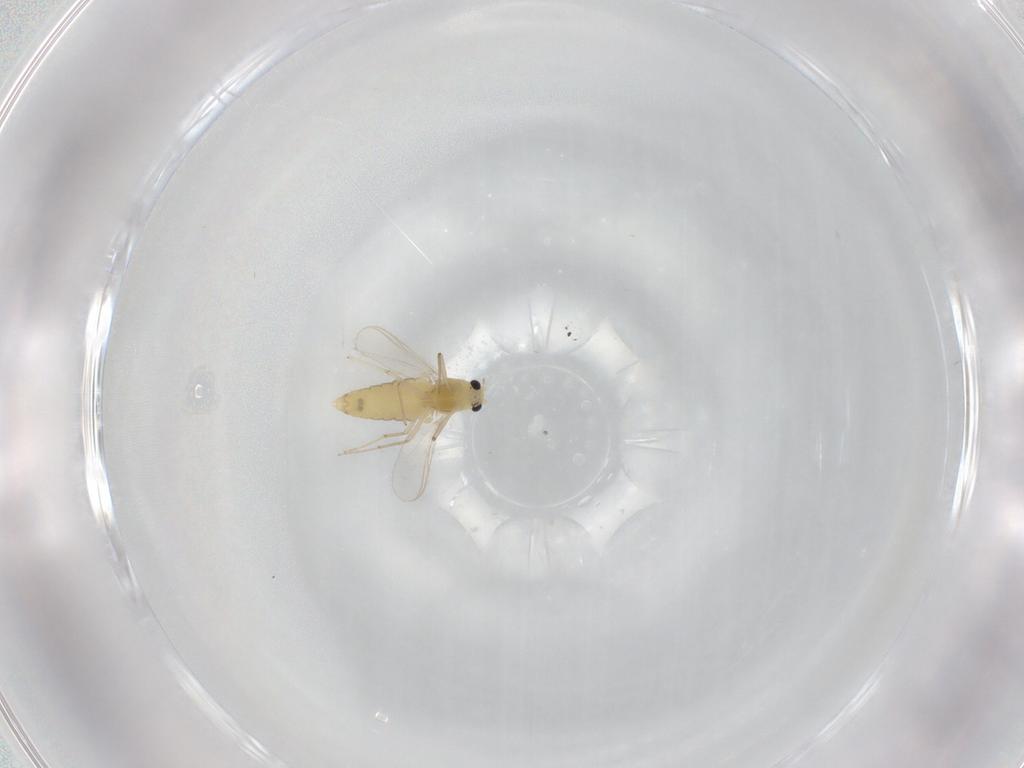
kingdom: Animalia
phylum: Arthropoda
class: Insecta
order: Diptera
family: Chironomidae
